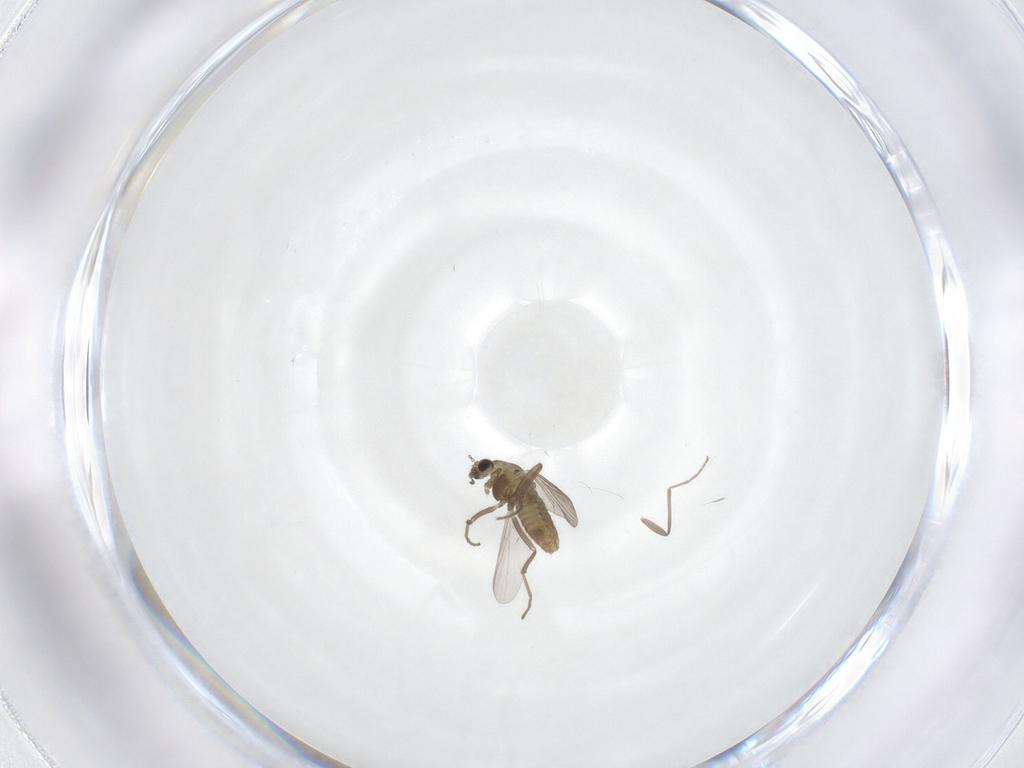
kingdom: Animalia
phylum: Arthropoda
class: Insecta
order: Diptera
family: Chironomidae
